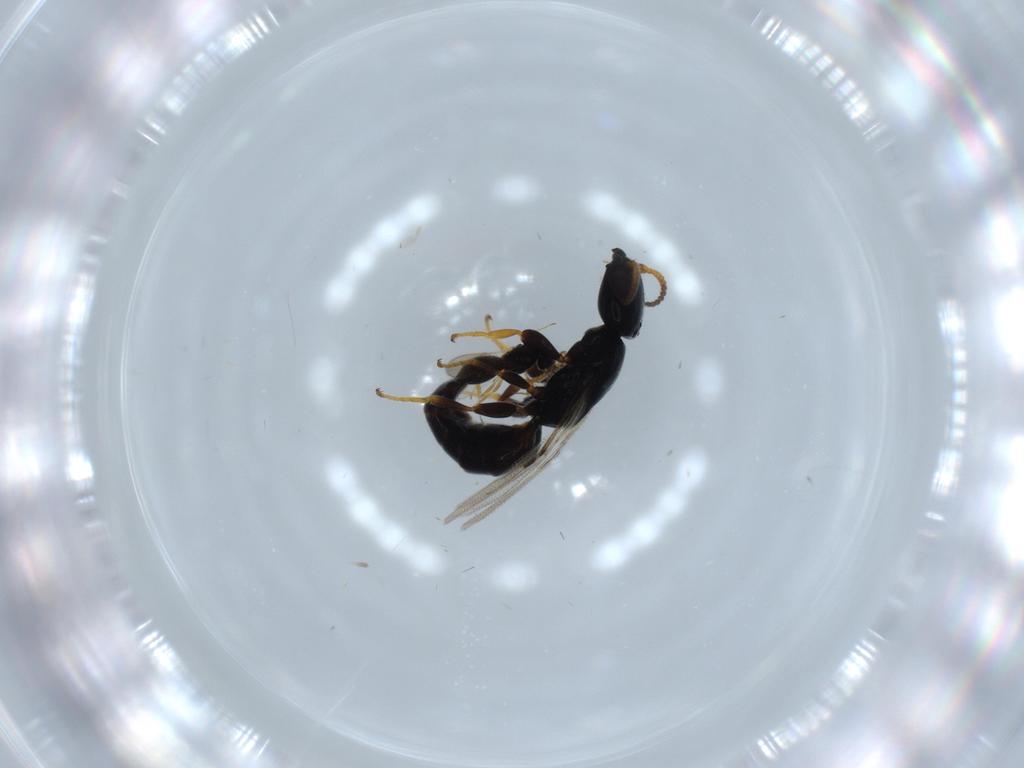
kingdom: Animalia
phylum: Arthropoda
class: Insecta
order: Hymenoptera
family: Bethylidae
